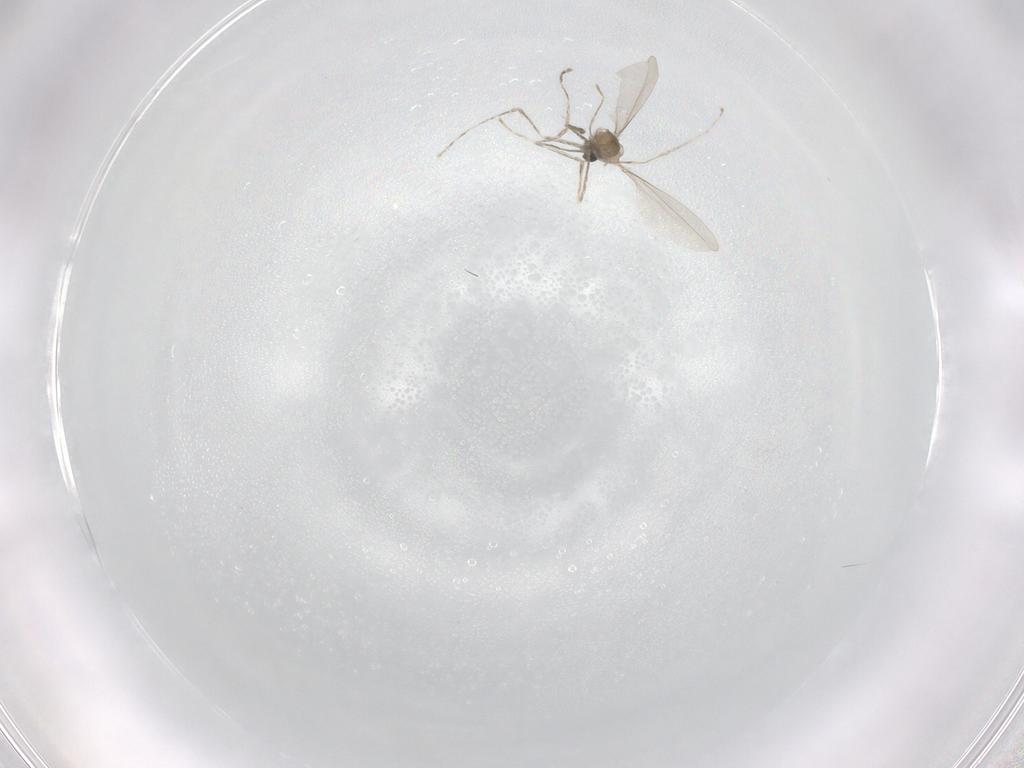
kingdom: Animalia
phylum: Arthropoda
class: Insecta
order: Diptera
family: Cecidomyiidae
